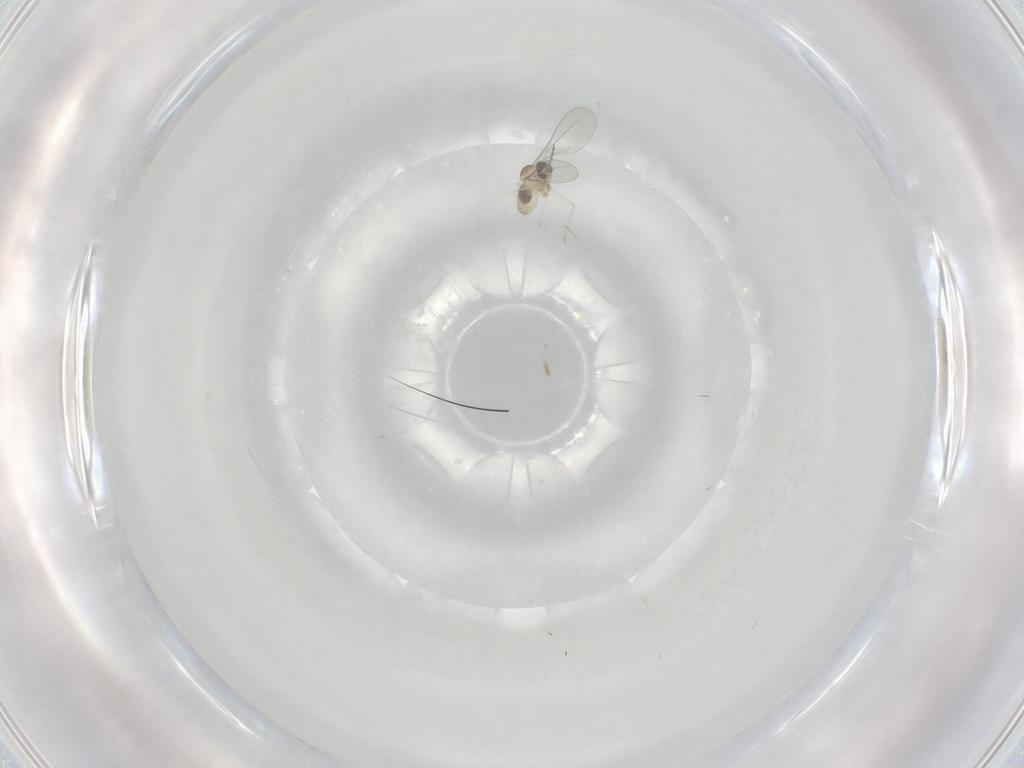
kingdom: Animalia
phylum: Arthropoda
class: Insecta
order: Diptera
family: Cecidomyiidae
